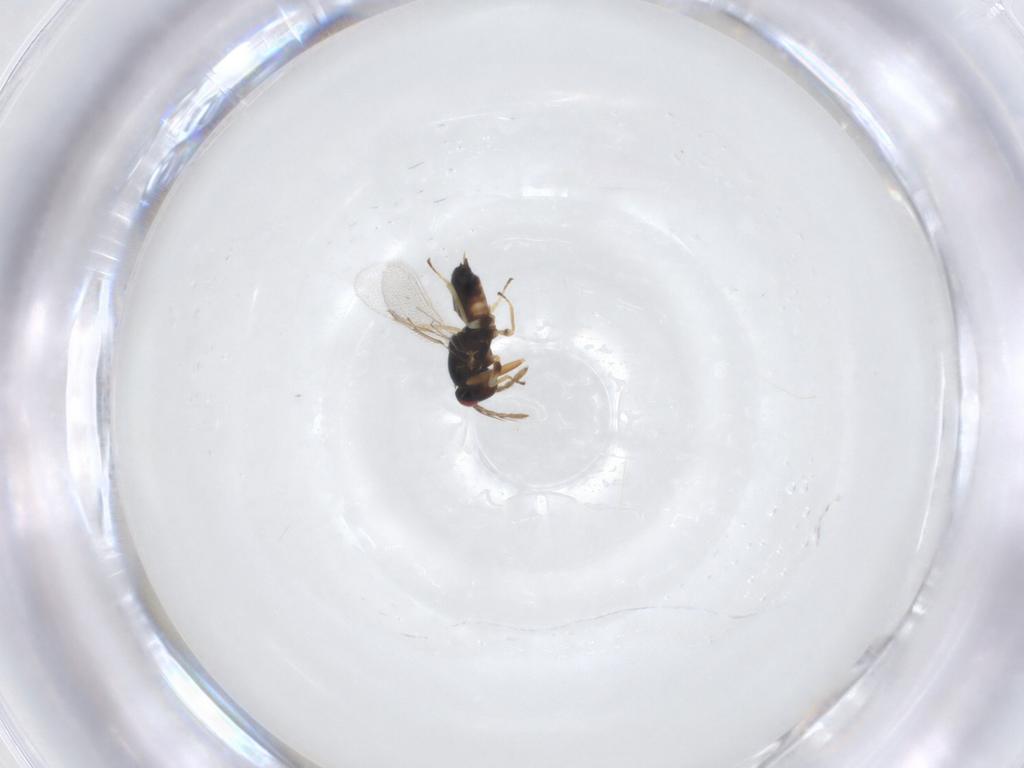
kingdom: Animalia
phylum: Arthropoda
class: Insecta
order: Hymenoptera
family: Eulophidae
